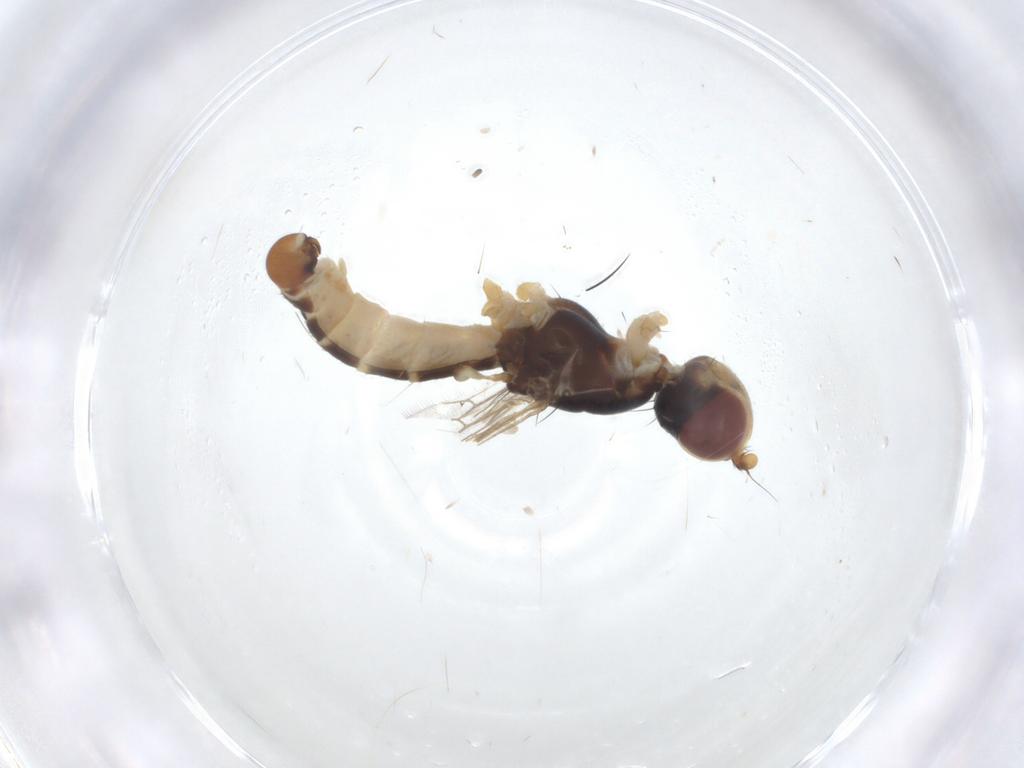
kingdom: Animalia
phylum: Arthropoda
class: Insecta
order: Diptera
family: Micropezidae
